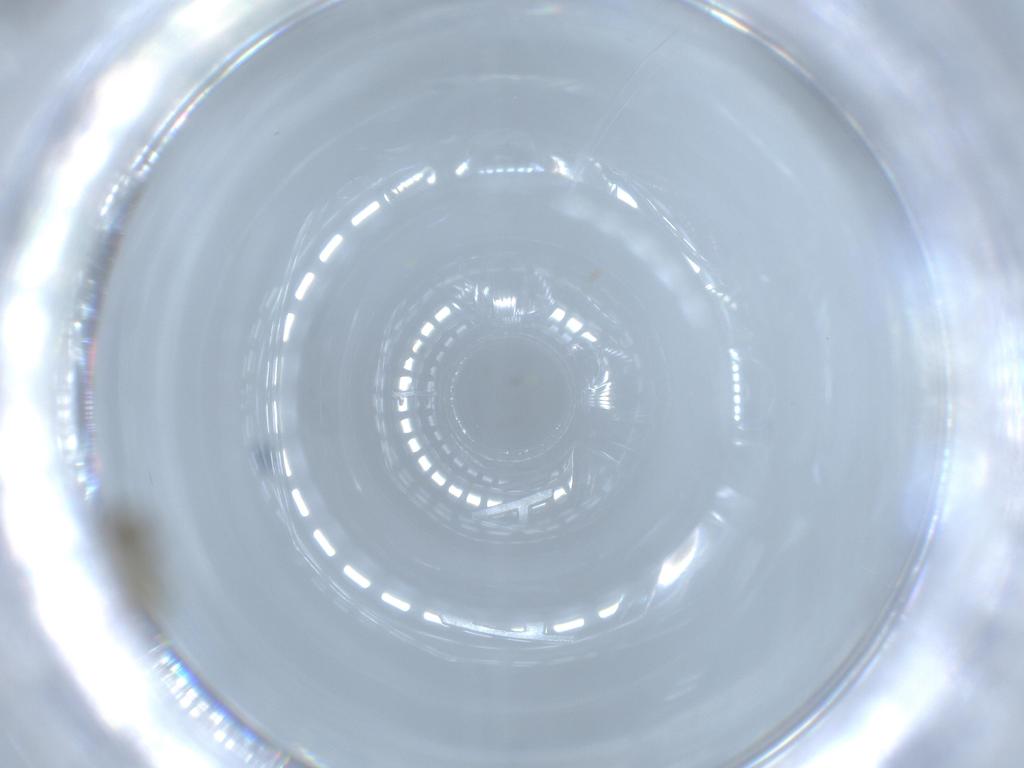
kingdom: Animalia
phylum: Arthropoda
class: Insecta
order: Diptera
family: Chironomidae
